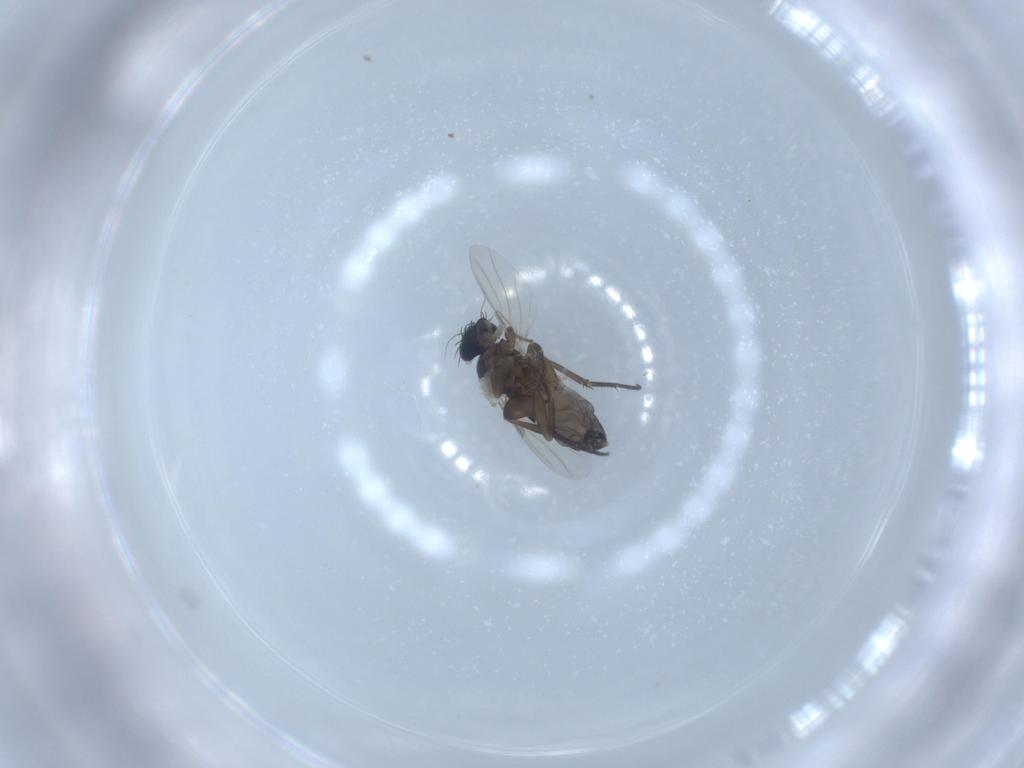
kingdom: Animalia
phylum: Arthropoda
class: Insecta
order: Diptera
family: Phoridae
